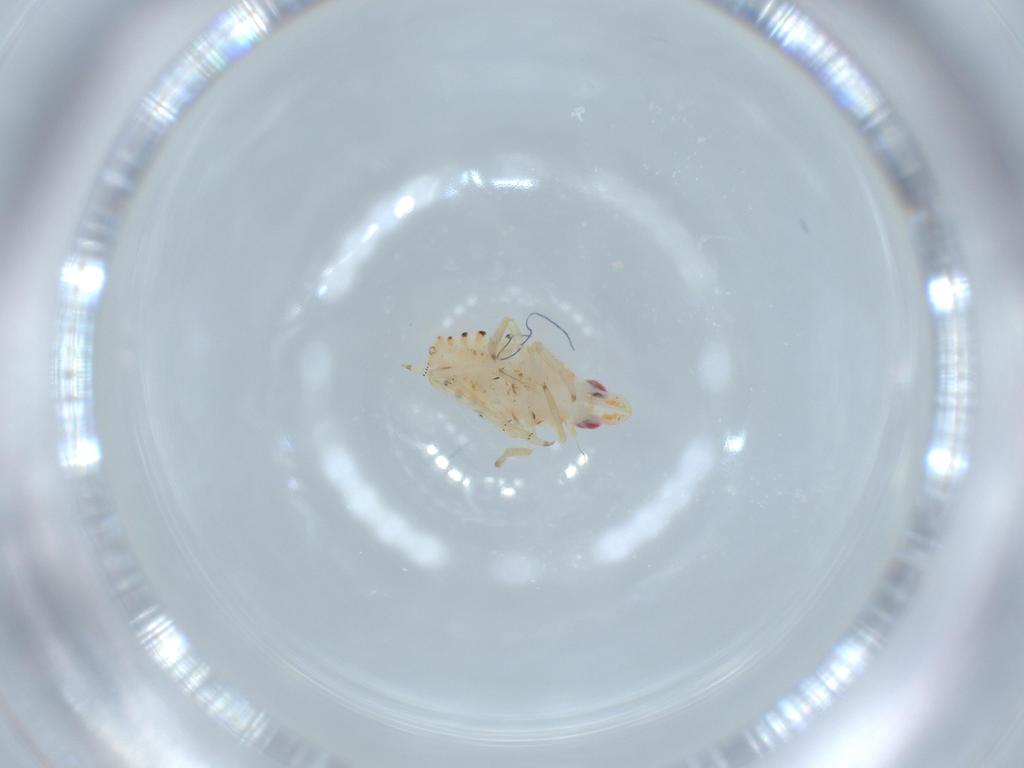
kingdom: Animalia
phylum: Arthropoda
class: Insecta
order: Hemiptera
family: Tropiduchidae
